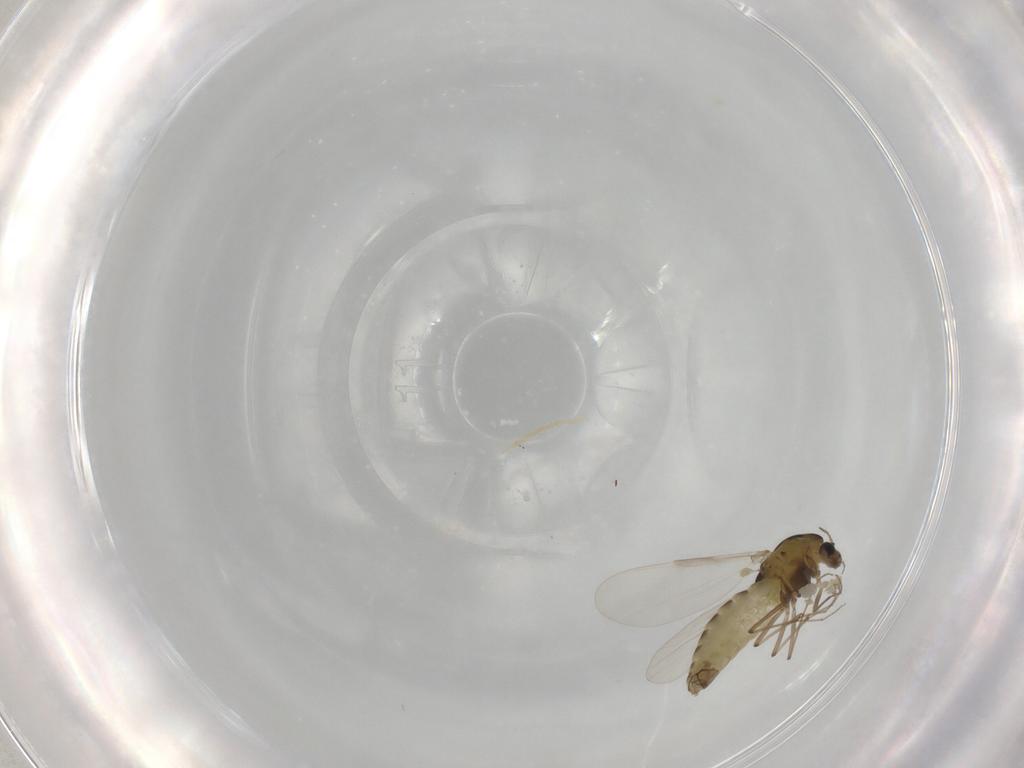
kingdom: Animalia
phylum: Arthropoda
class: Insecta
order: Diptera
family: Chironomidae
